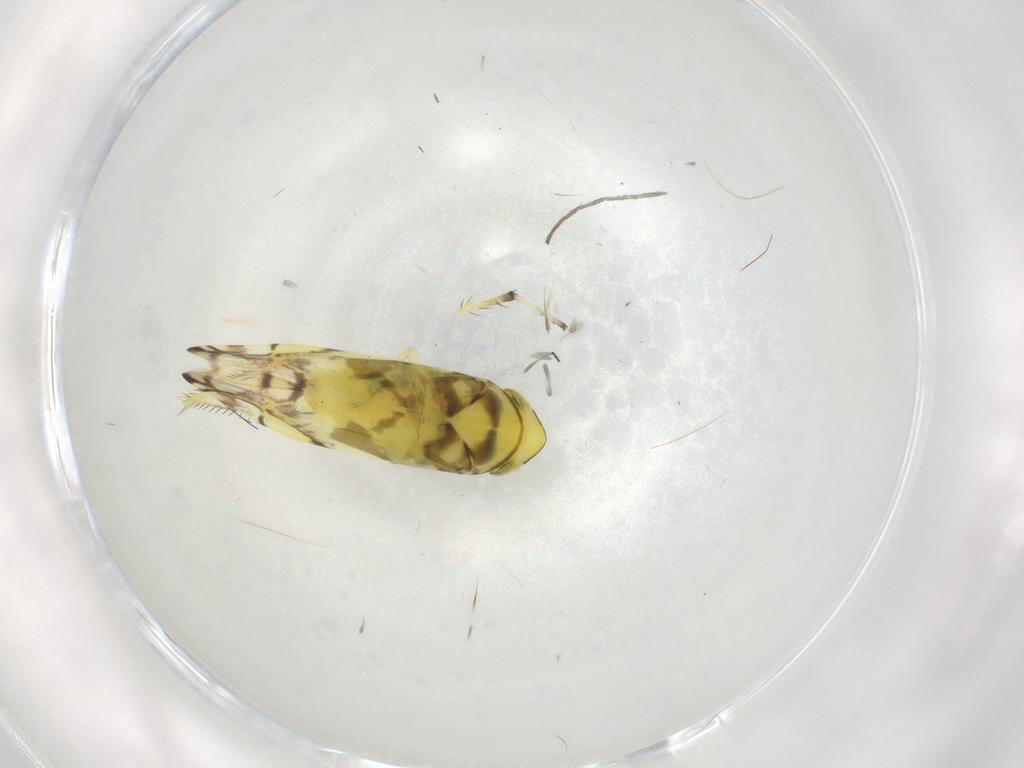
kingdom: Animalia
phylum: Arthropoda
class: Insecta
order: Hemiptera
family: Cicadellidae
